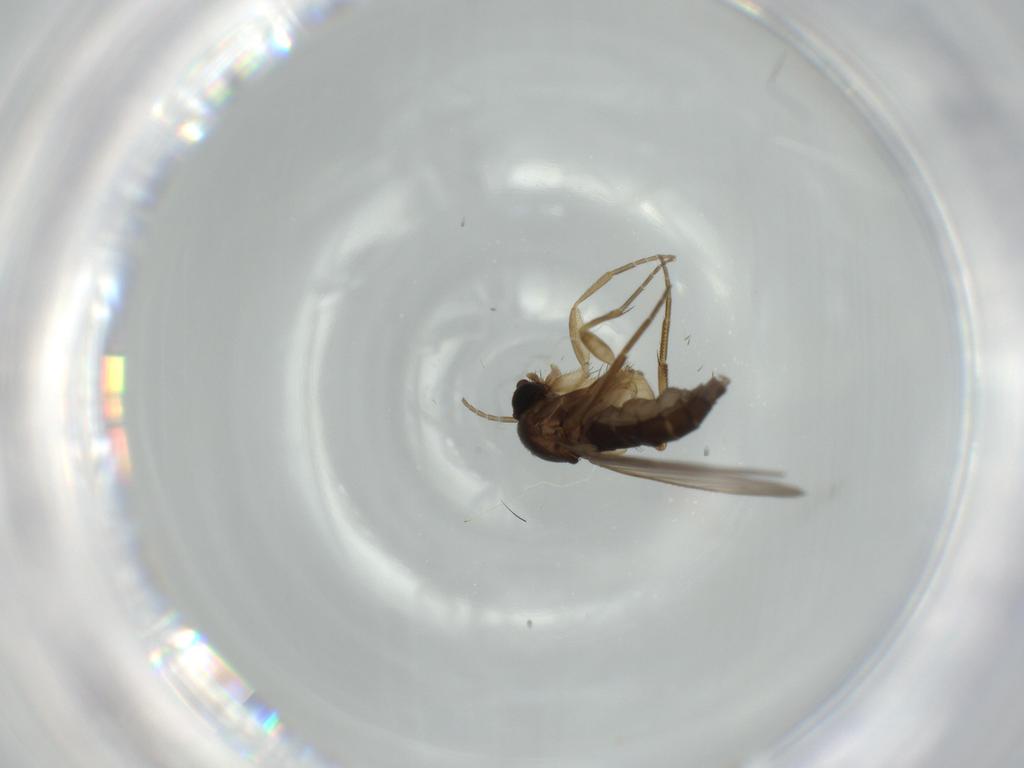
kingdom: Animalia
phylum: Arthropoda
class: Insecta
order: Diptera
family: Phoridae
